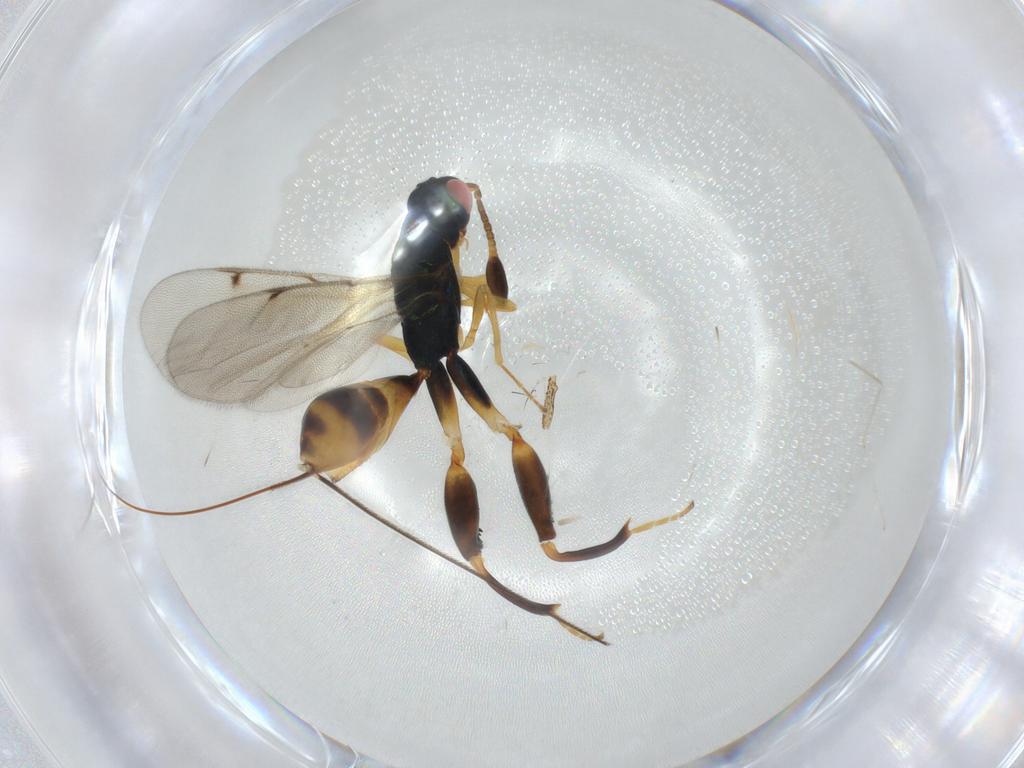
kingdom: Animalia
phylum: Arthropoda
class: Insecta
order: Hymenoptera
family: Torymidae
